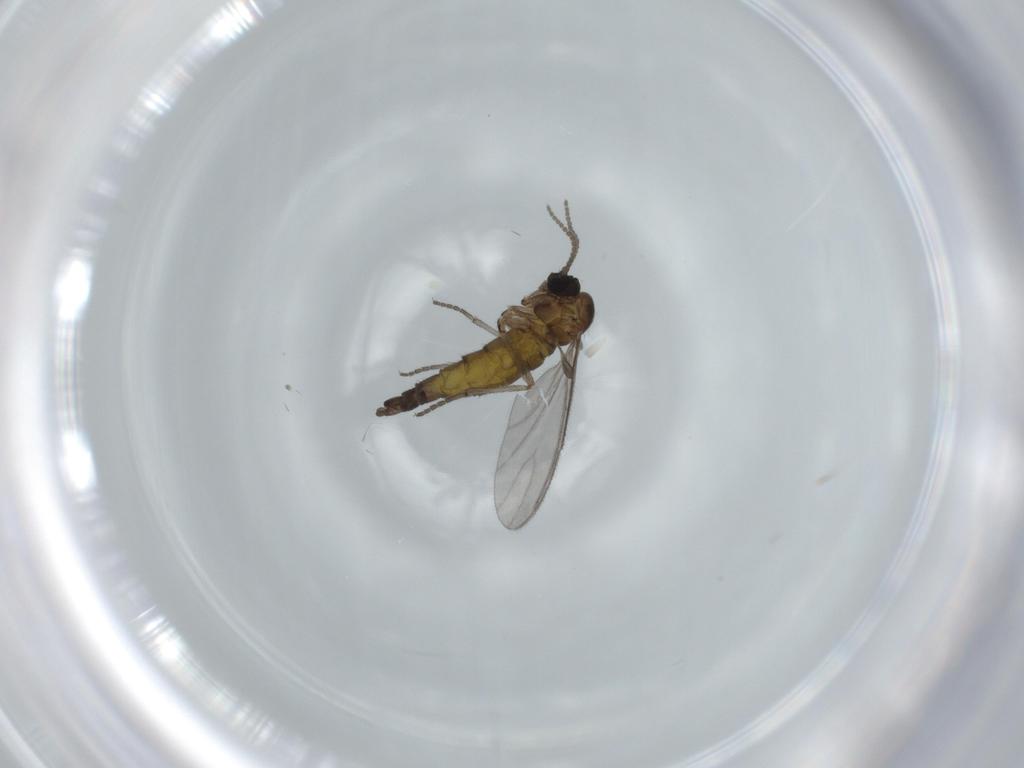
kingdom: Animalia
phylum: Arthropoda
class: Insecta
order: Diptera
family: Sciaridae
